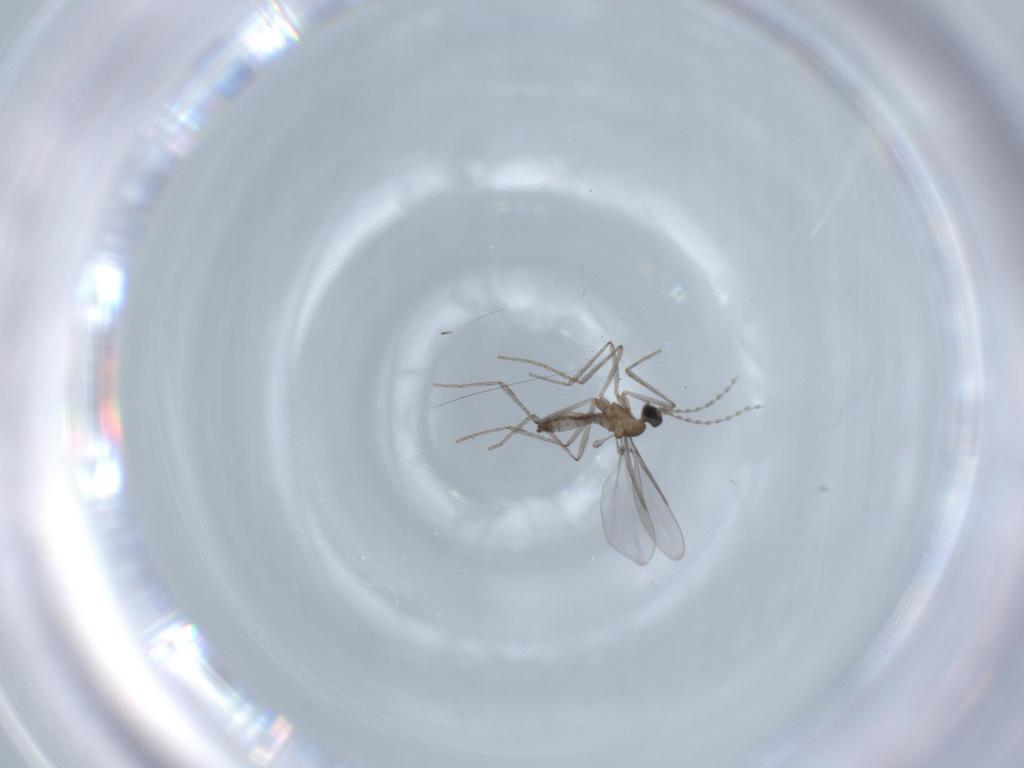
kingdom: Animalia
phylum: Arthropoda
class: Insecta
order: Diptera
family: Cecidomyiidae
